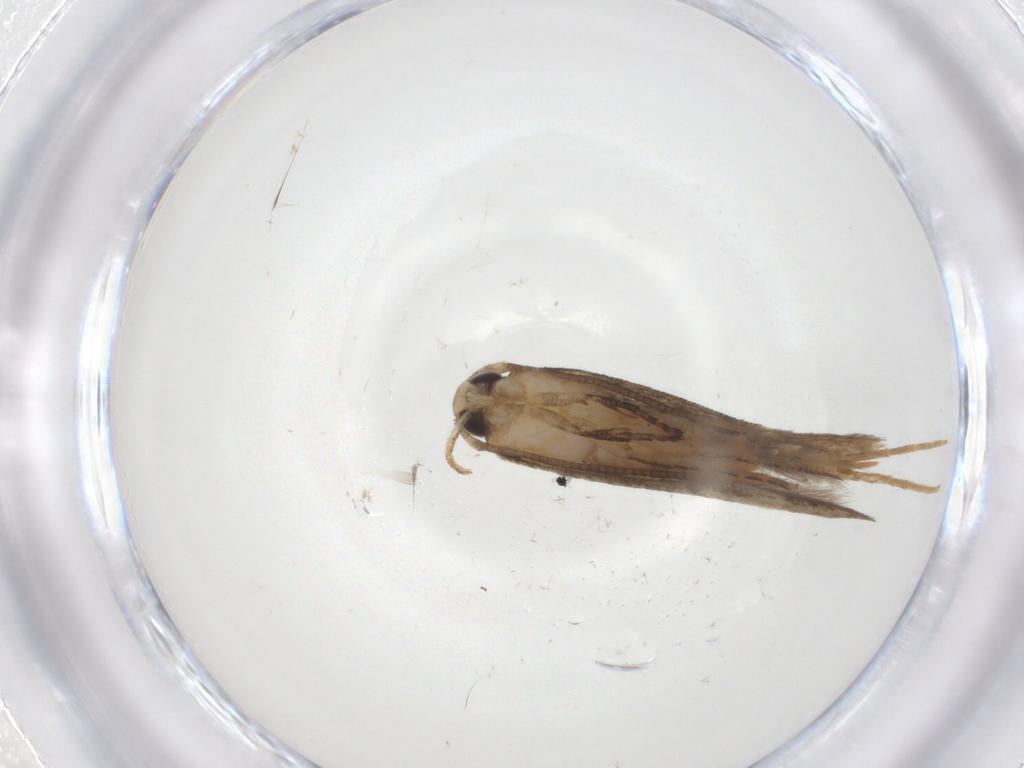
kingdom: Animalia
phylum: Arthropoda
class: Insecta
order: Lepidoptera
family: Cosmopterigidae
